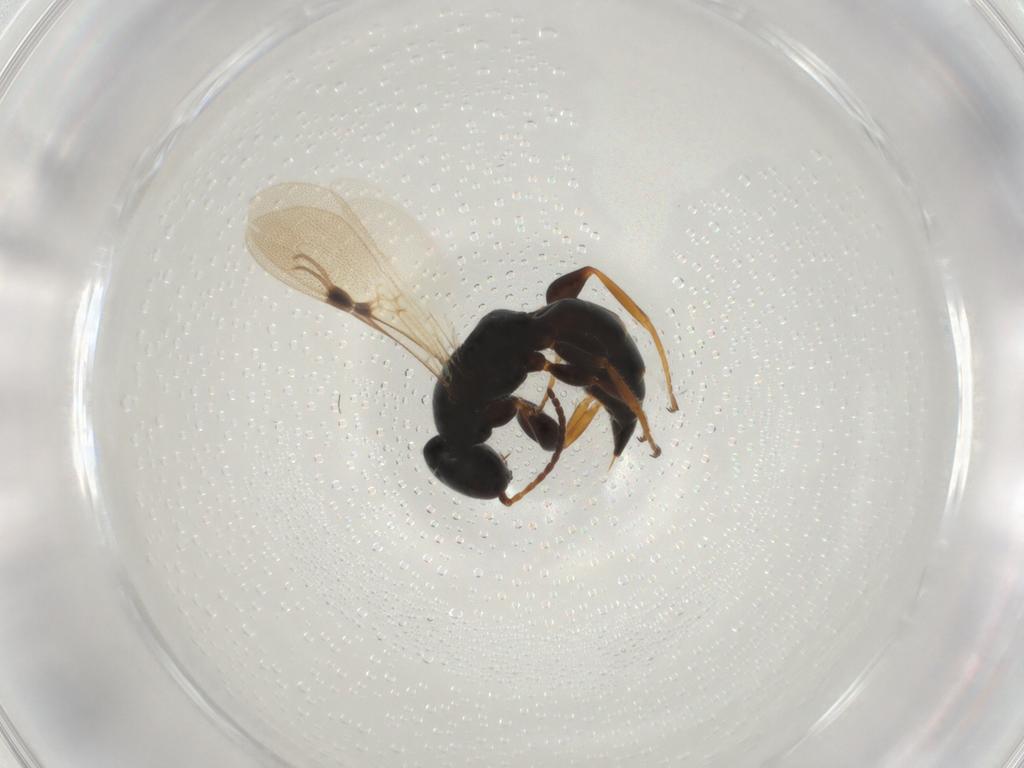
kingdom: Animalia
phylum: Arthropoda
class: Insecta
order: Hymenoptera
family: Bethylidae
